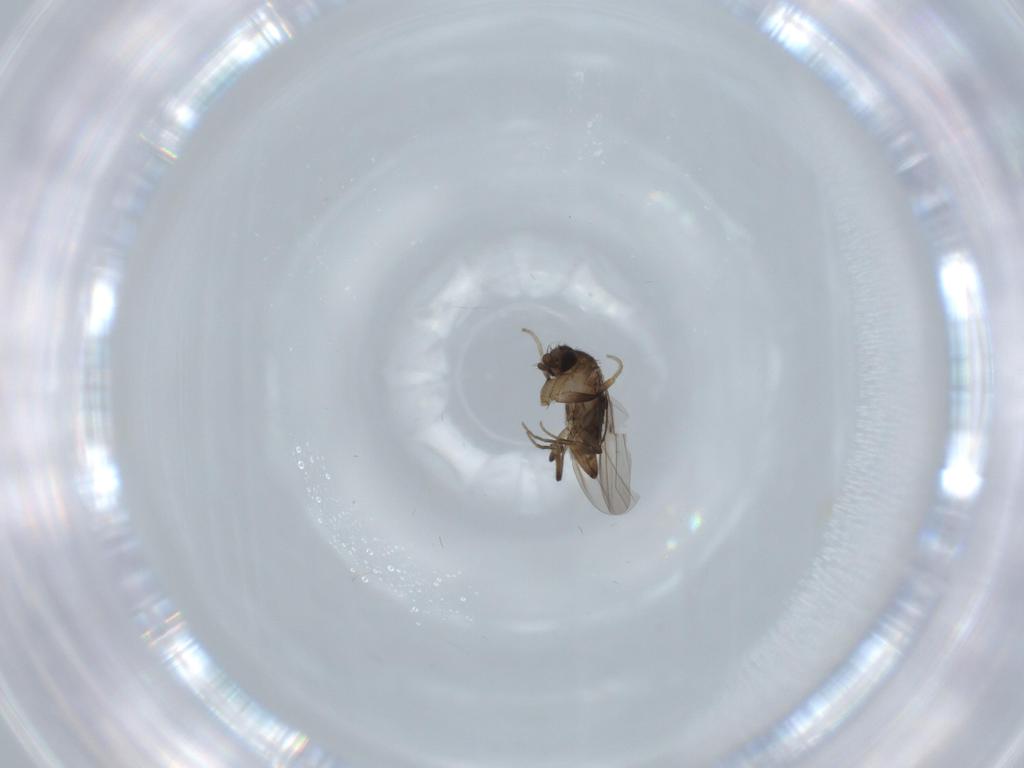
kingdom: Animalia
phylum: Arthropoda
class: Insecta
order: Diptera
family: Phoridae
